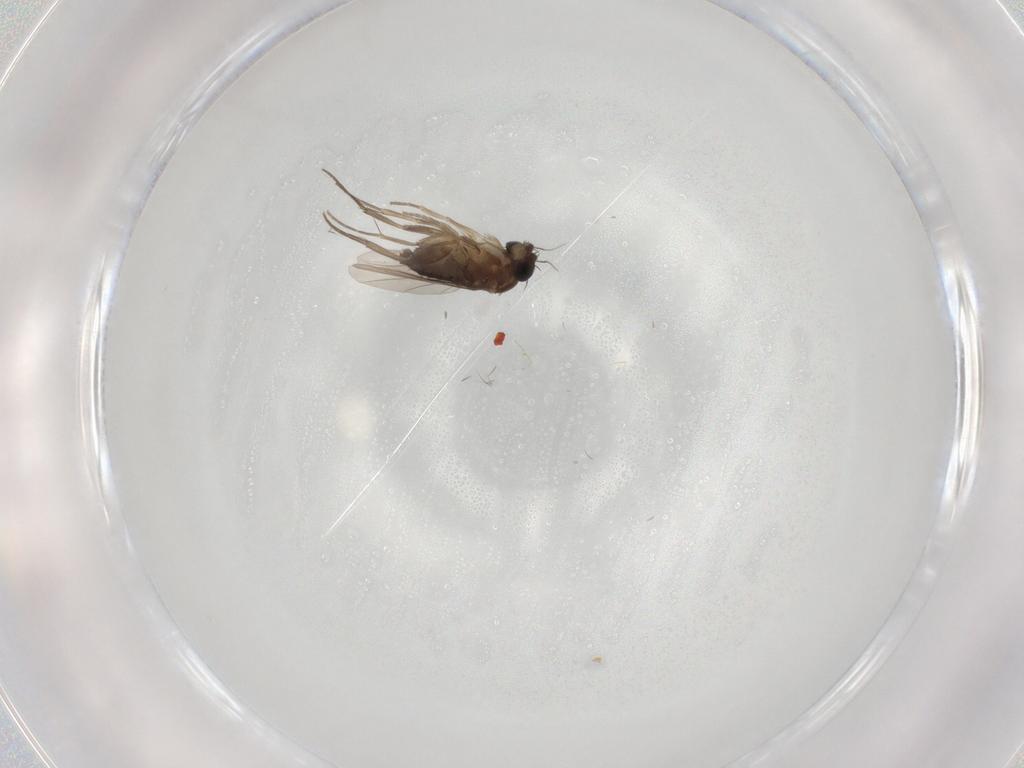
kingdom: Animalia
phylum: Arthropoda
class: Insecta
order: Diptera
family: Phoridae
